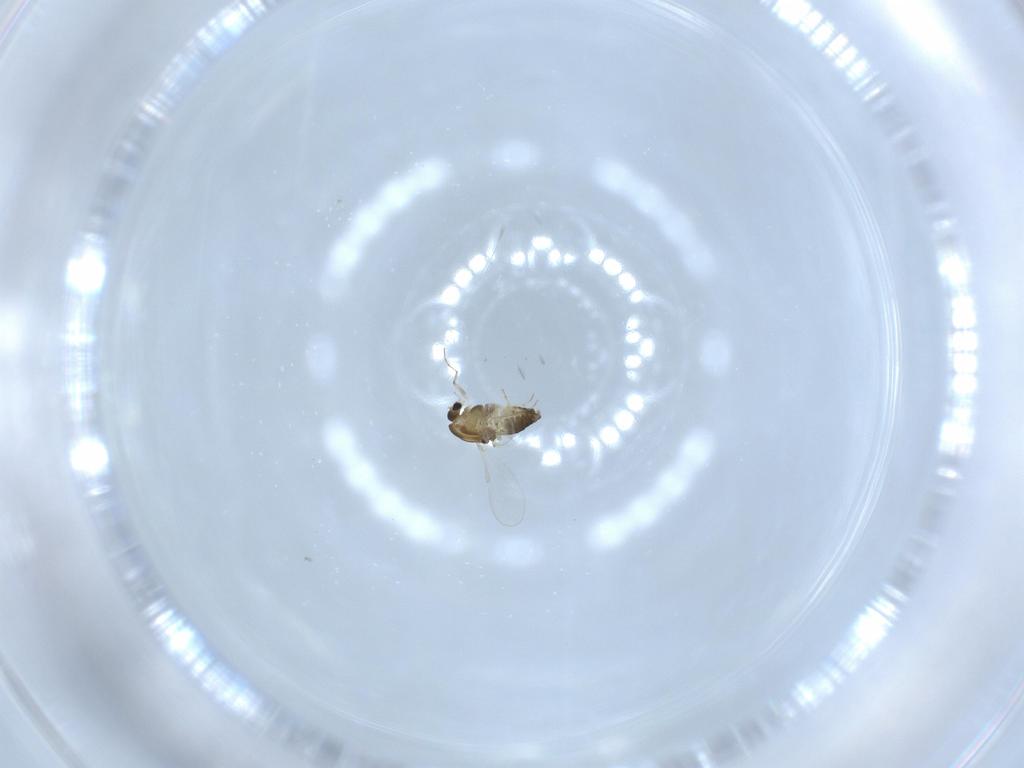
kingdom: Animalia
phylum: Arthropoda
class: Insecta
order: Diptera
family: Chironomidae
